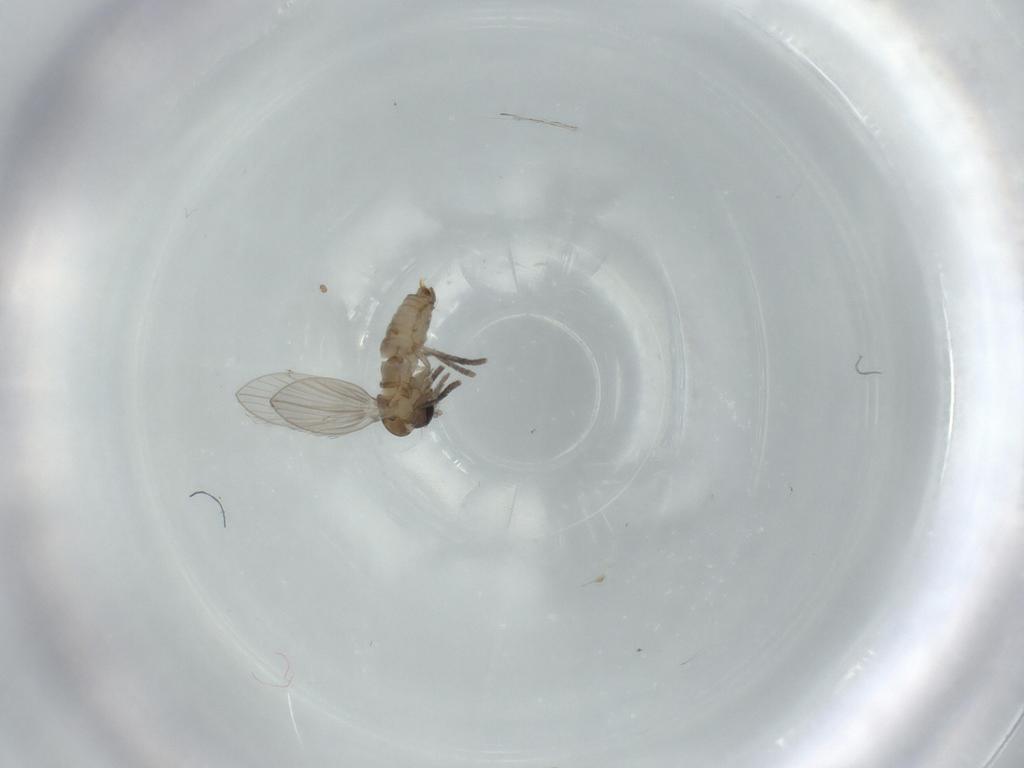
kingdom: Animalia
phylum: Arthropoda
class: Insecta
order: Diptera
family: Psychodidae
